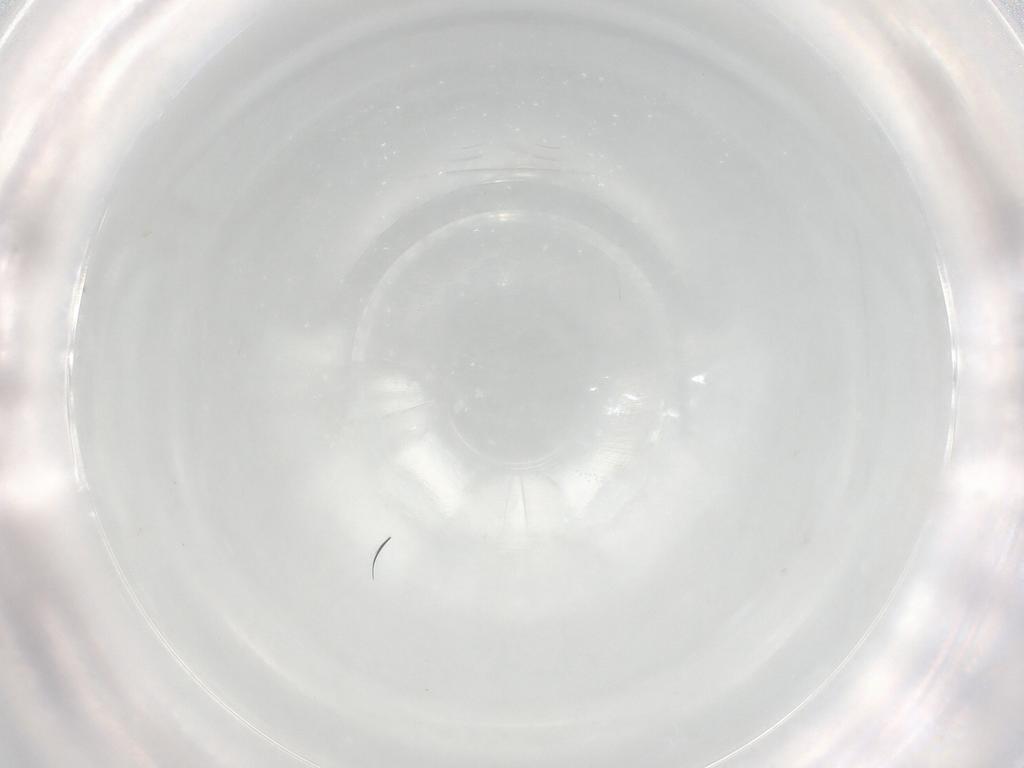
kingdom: Animalia
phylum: Arthropoda
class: Arachnida
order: Trombidiformes
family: Lebertiidae
